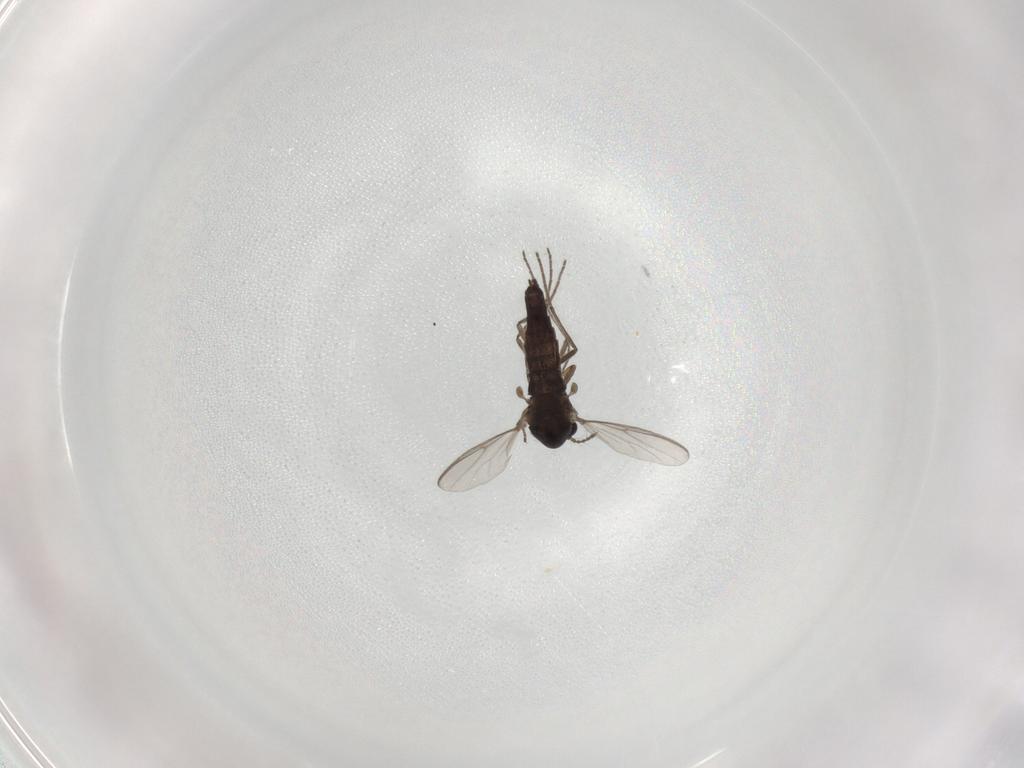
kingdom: Animalia
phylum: Arthropoda
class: Insecta
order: Diptera
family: Chironomidae
